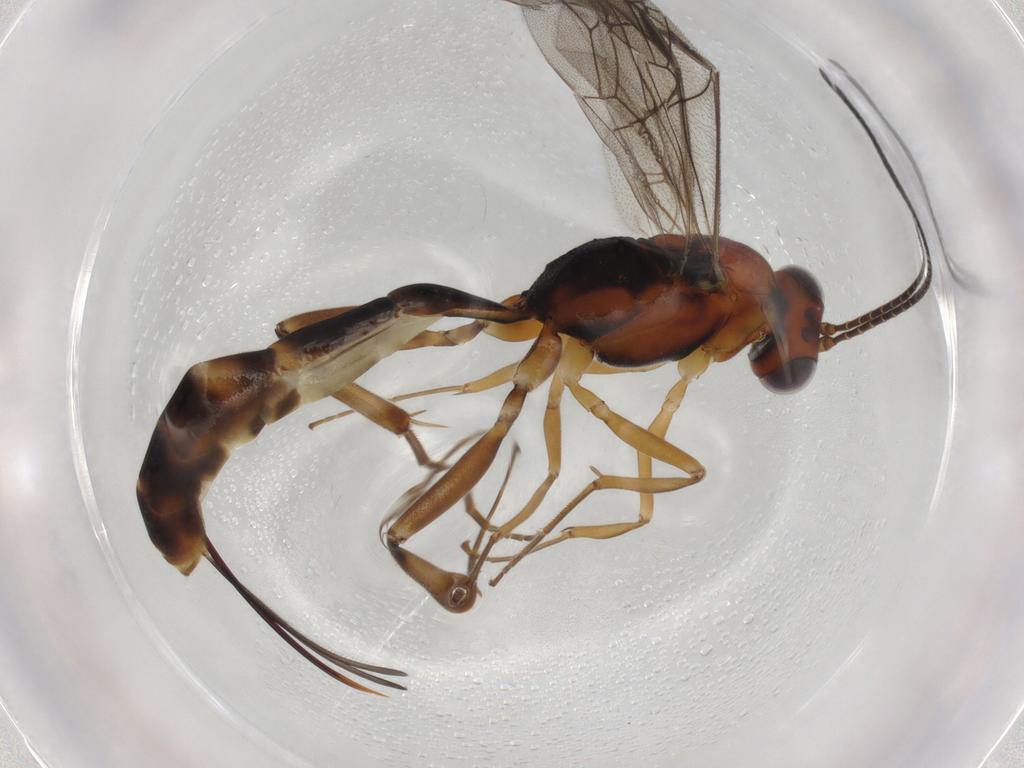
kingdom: Animalia
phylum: Arthropoda
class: Insecta
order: Hymenoptera
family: Ichneumonidae
